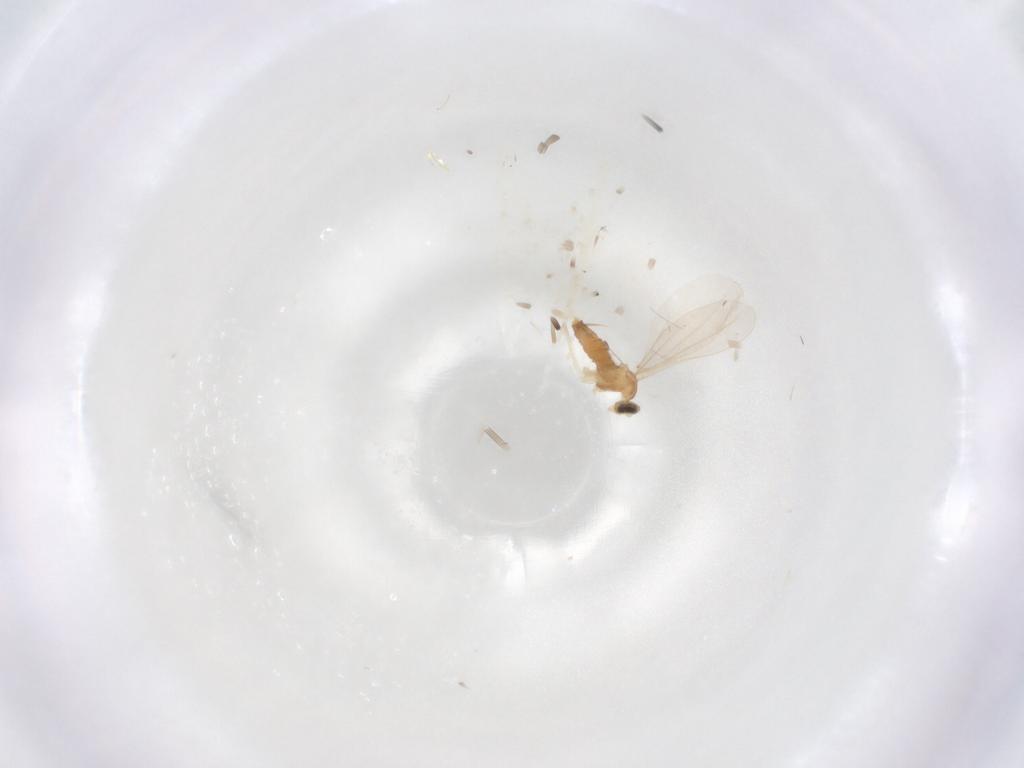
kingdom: Animalia
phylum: Arthropoda
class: Insecta
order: Diptera
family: Cecidomyiidae
